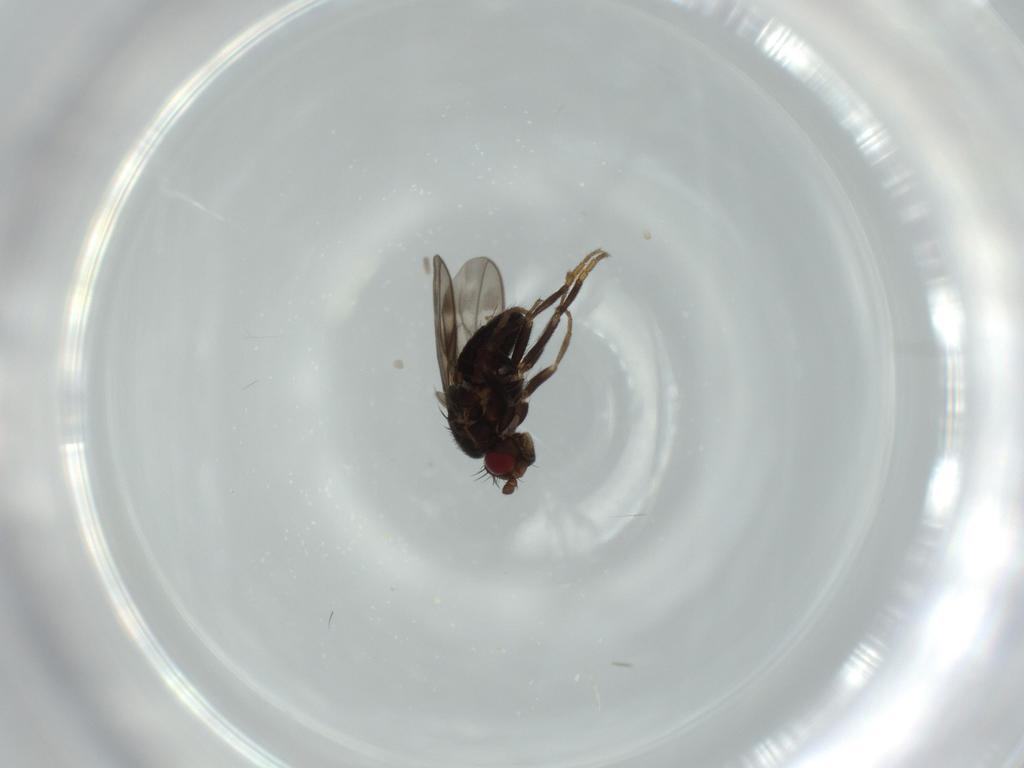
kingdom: Animalia
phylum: Arthropoda
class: Insecta
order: Diptera
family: Sphaeroceridae
